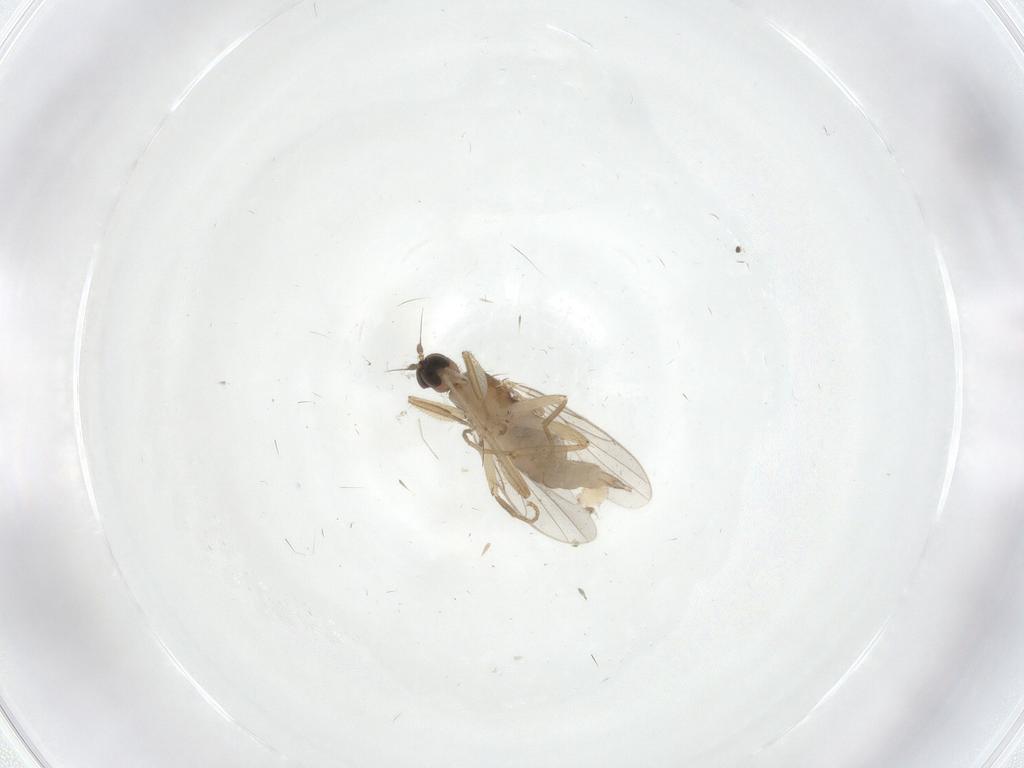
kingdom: Animalia
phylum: Arthropoda
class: Insecta
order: Diptera
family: Hybotidae
